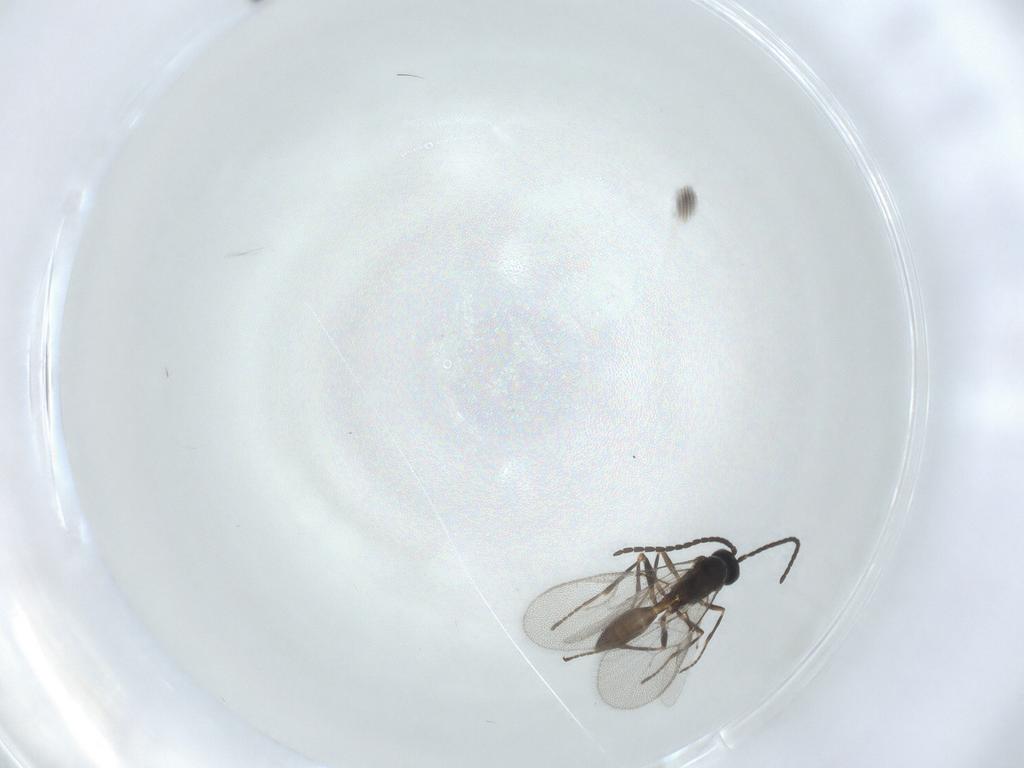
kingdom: Animalia
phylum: Arthropoda
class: Insecta
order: Hymenoptera
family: Braconidae
